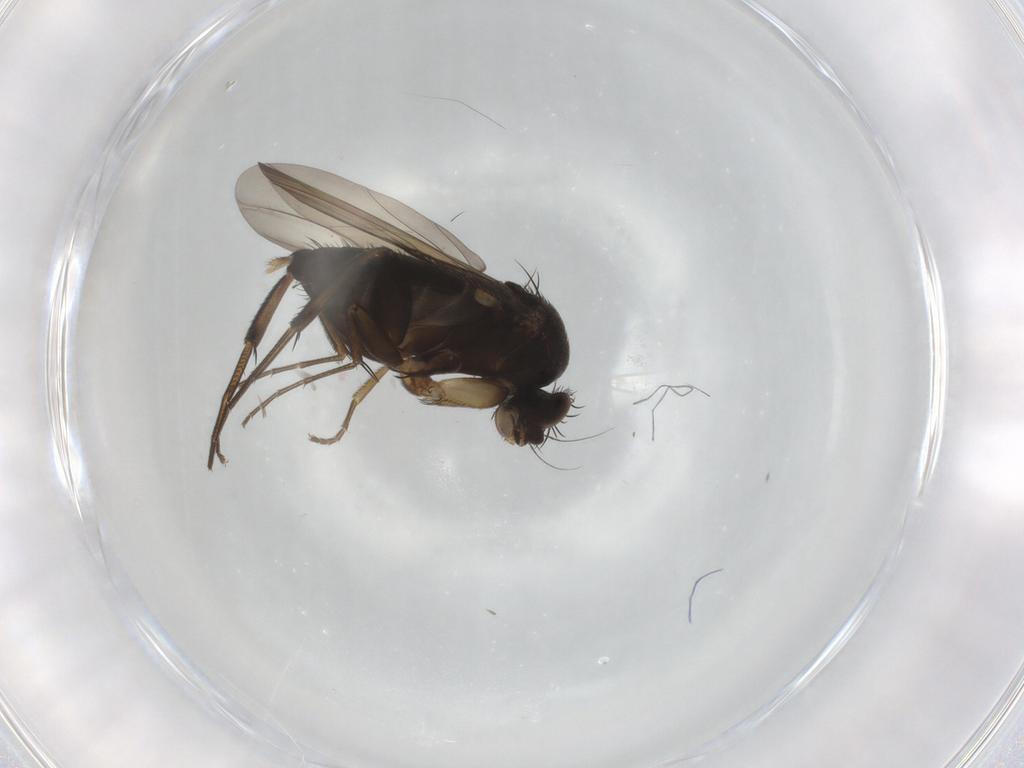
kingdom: Animalia
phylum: Arthropoda
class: Insecta
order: Diptera
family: Phoridae
